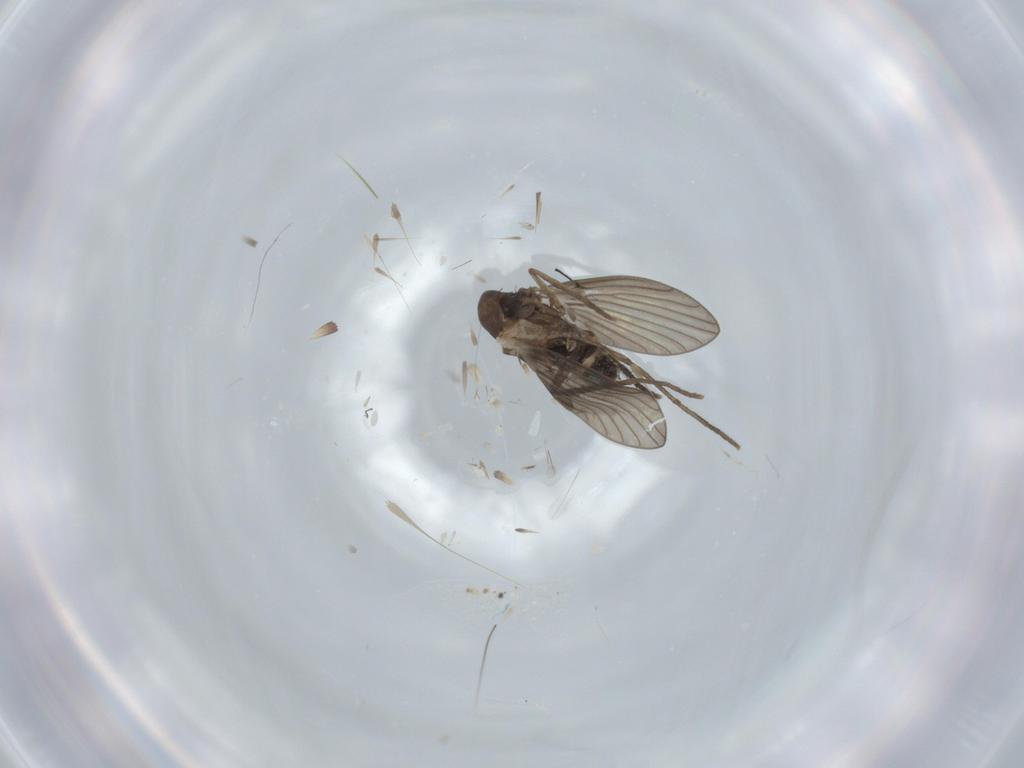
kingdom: Animalia
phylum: Arthropoda
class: Insecta
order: Diptera
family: Psychodidae
